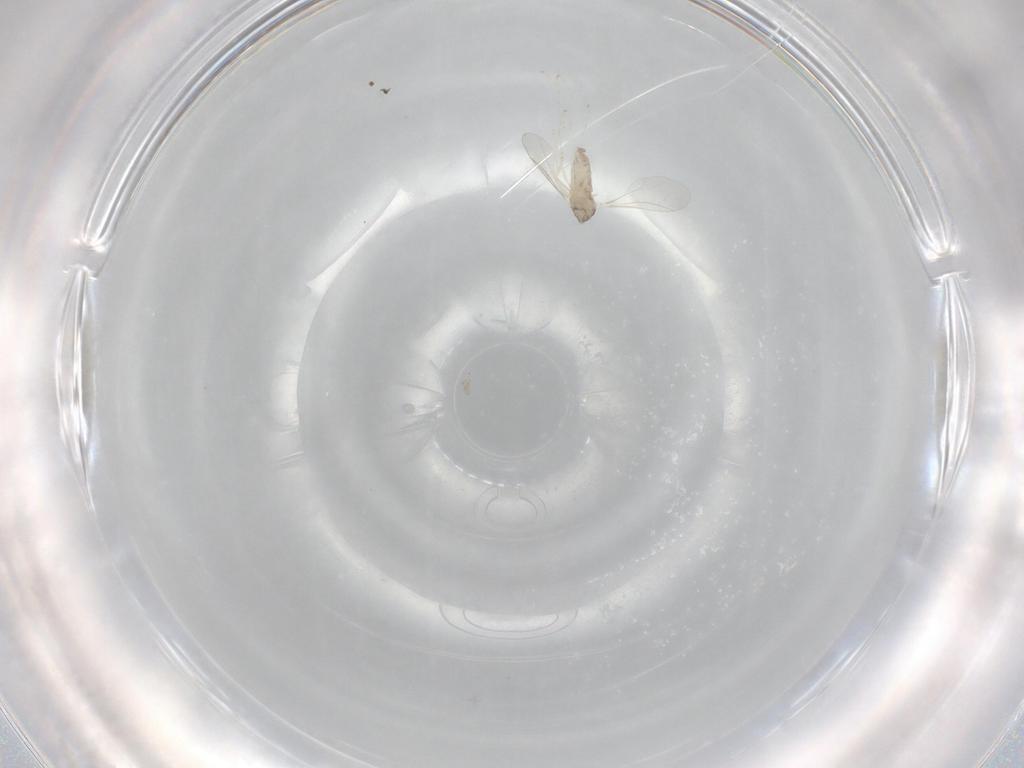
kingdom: Animalia
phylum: Arthropoda
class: Insecta
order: Diptera
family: Cecidomyiidae
